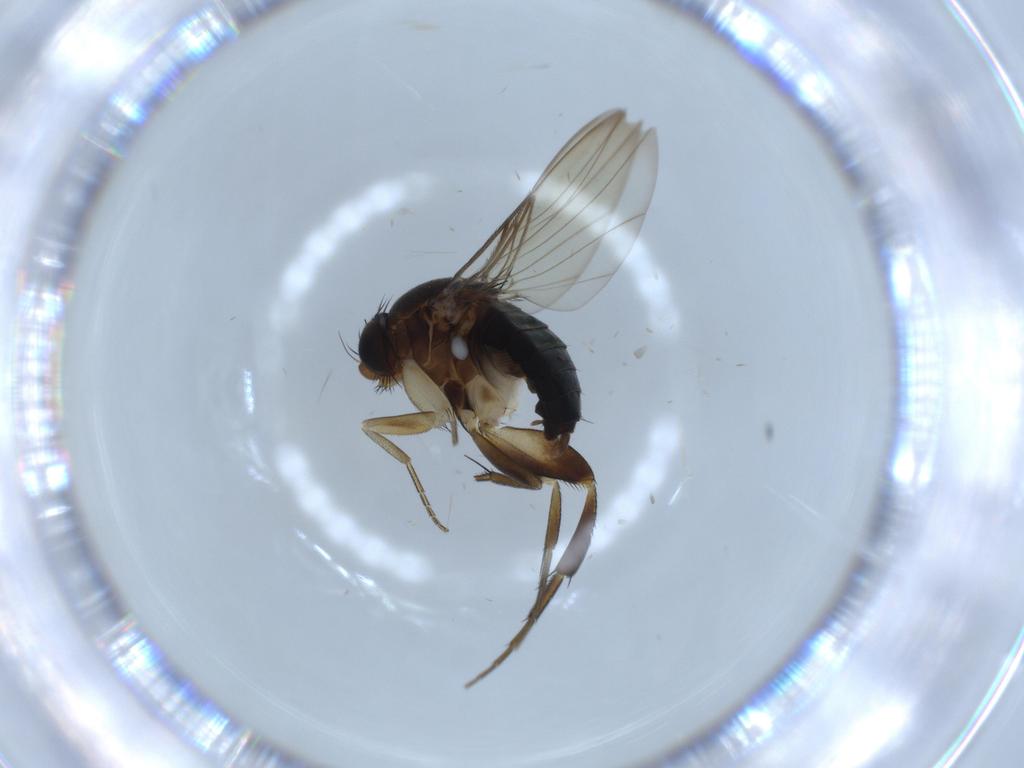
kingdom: Animalia
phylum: Arthropoda
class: Insecta
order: Diptera
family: Phoridae
